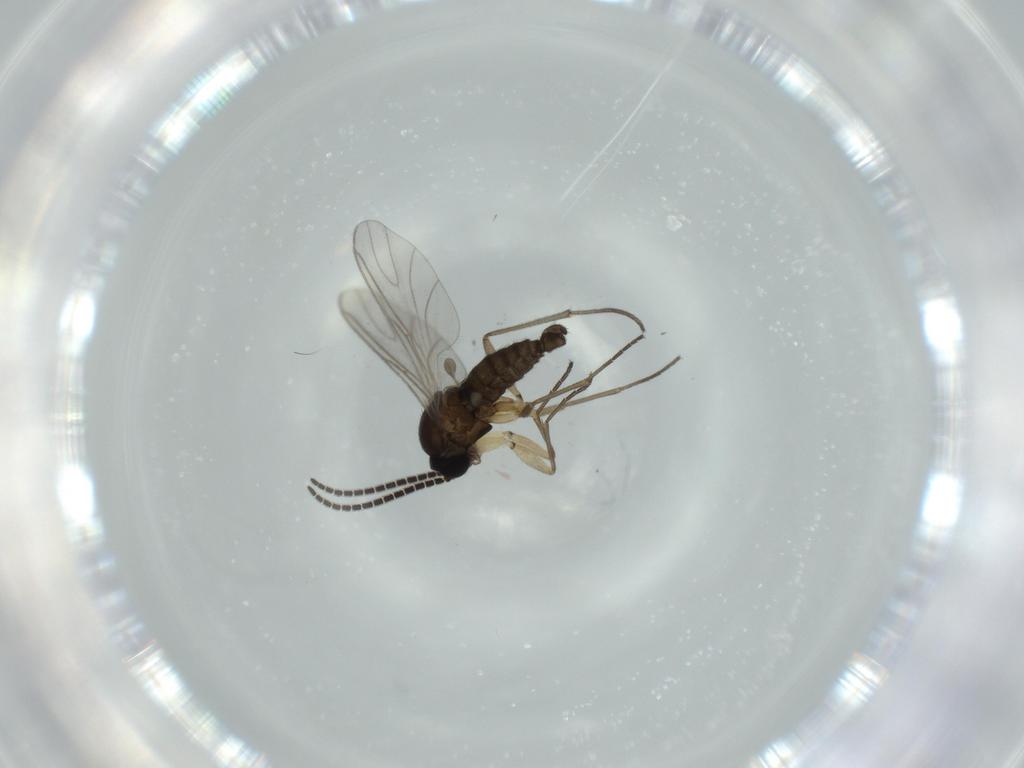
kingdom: Animalia
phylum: Arthropoda
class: Insecta
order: Diptera
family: Sciaridae
